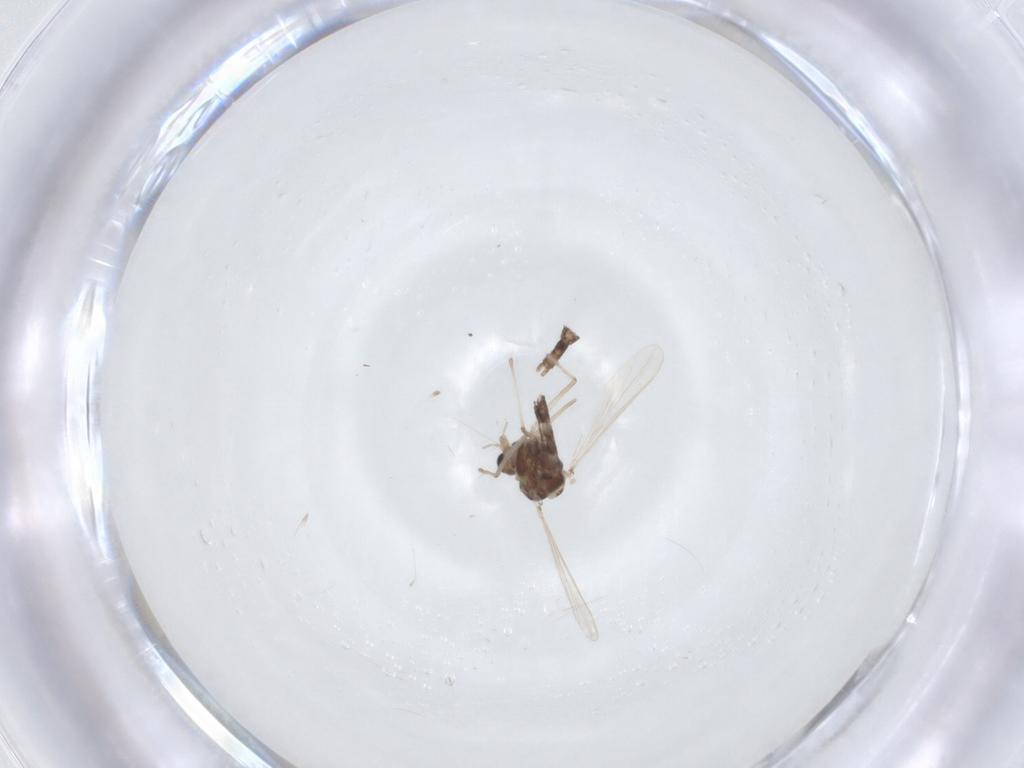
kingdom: Animalia
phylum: Arthropoda
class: Insecta
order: Diptera
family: Chironomidae
